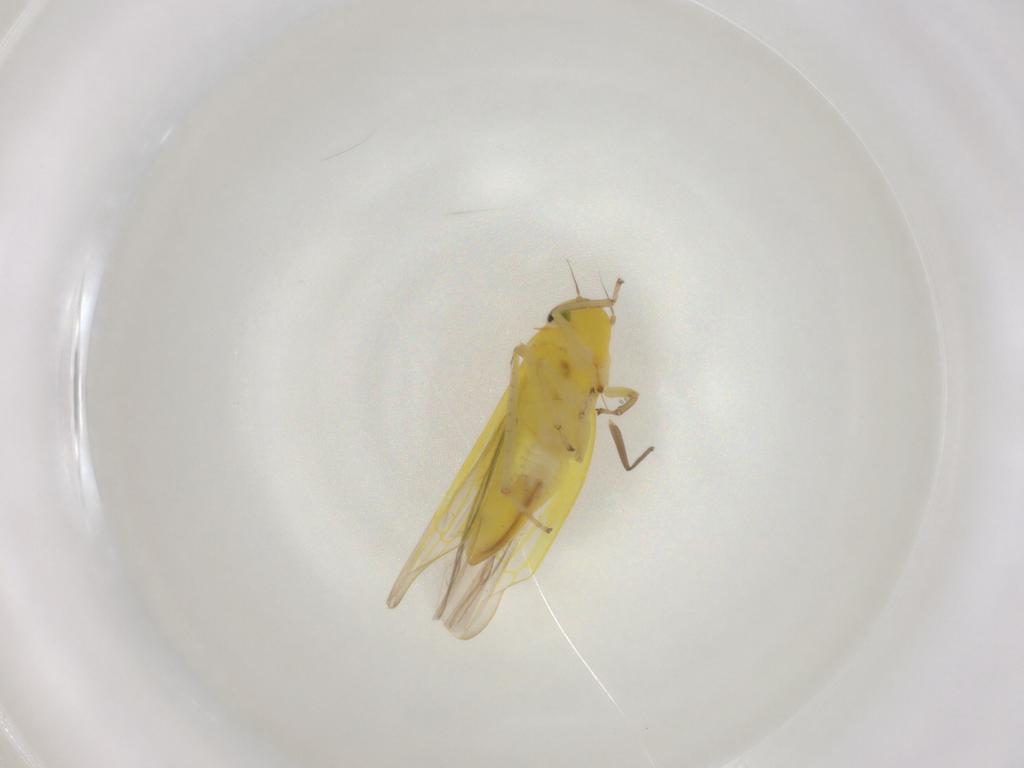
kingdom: Animalia
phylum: Arthropoda
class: Insecta
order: Hemiptera
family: Cicadellidae
